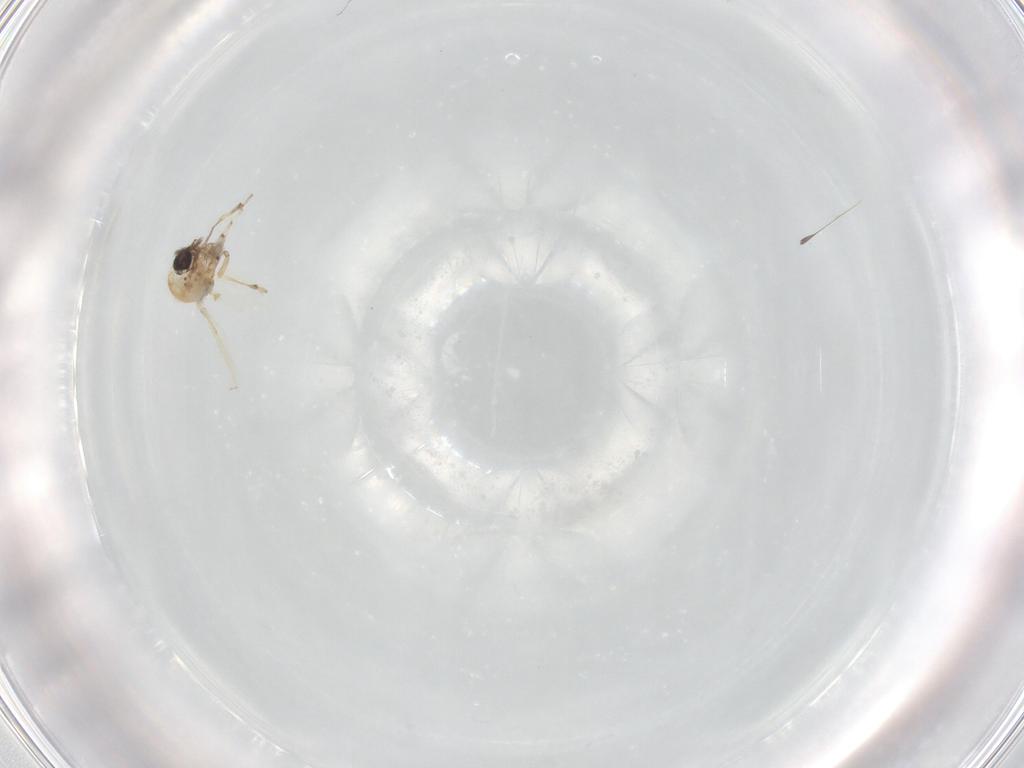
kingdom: Animalia
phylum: Arthropoda
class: Insecta
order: Diptera
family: Ceratopogonidae
